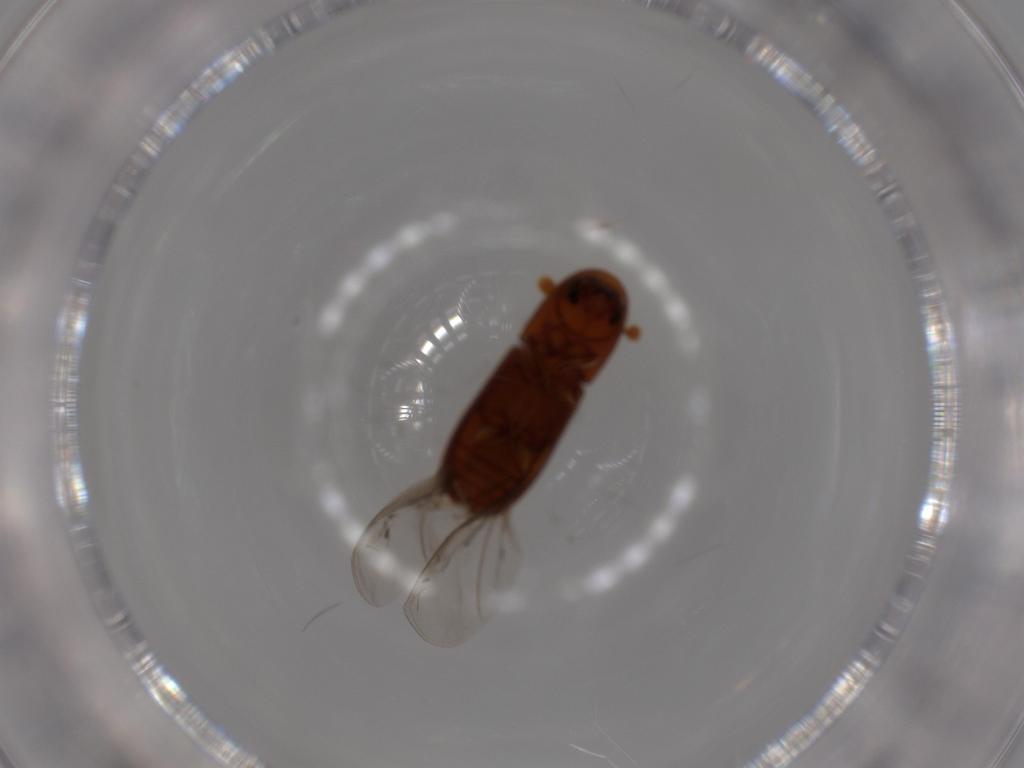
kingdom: Animalia
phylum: Arthropoda
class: Insecta
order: Coleoptera
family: Curculionidae
